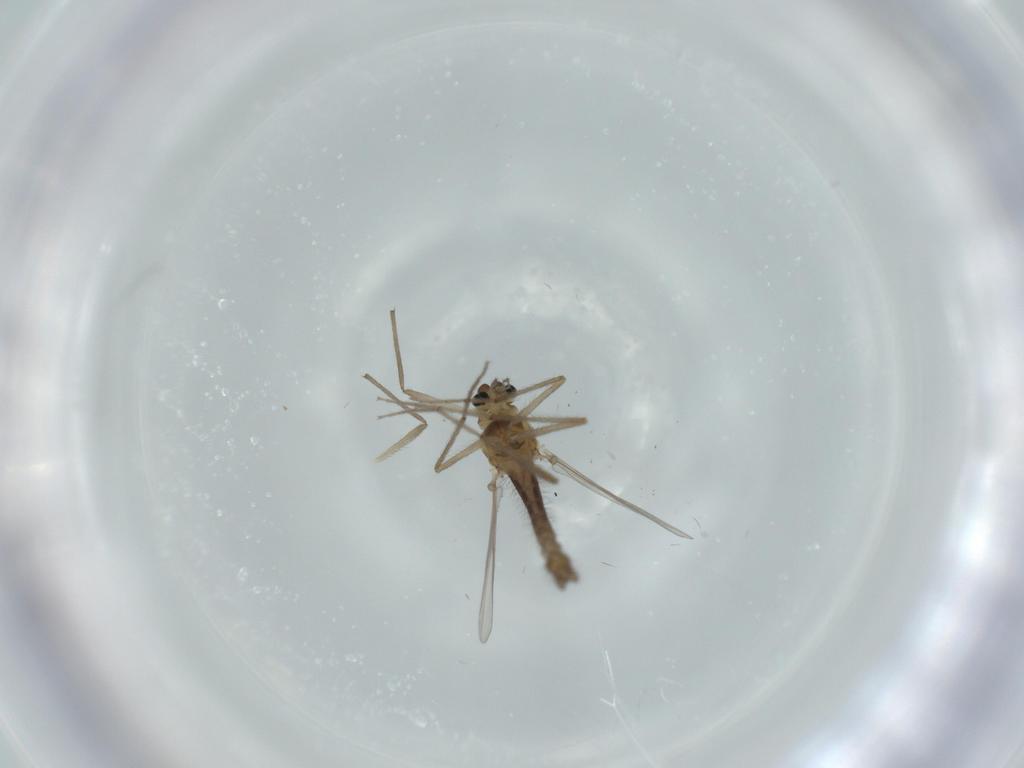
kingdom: Animalia
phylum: Arthropoda
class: Insecta
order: Diptera
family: Chironomidae
